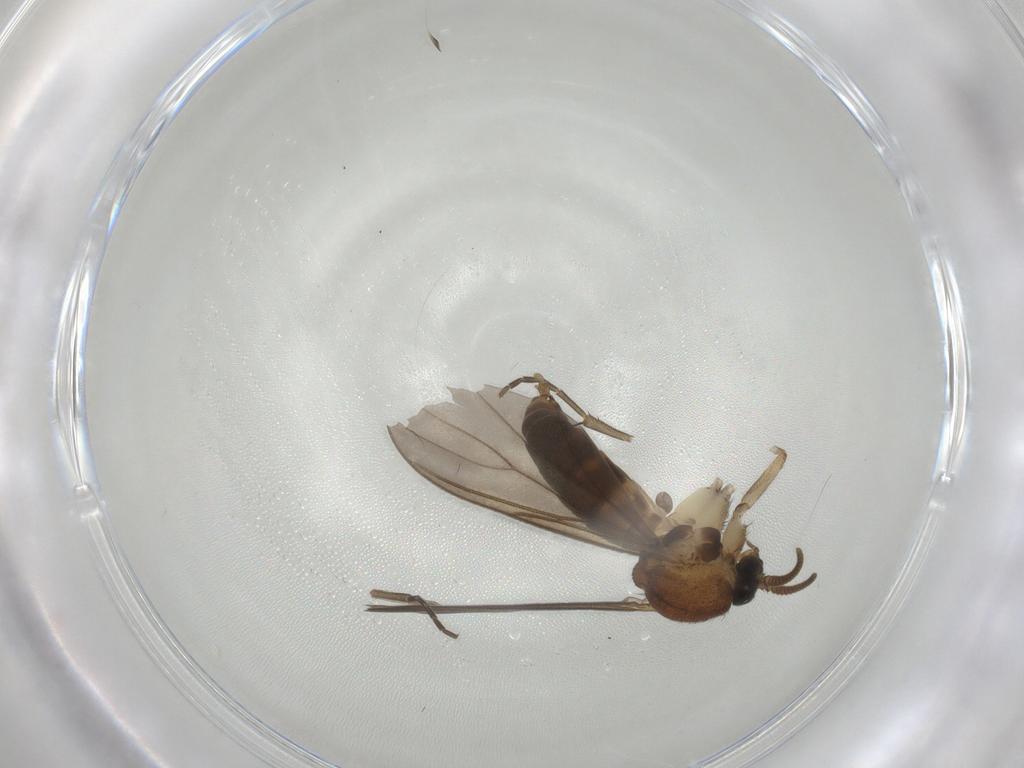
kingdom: Animalia
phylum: Arthropoda
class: Insecta
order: Diptera
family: Mycetophilidae
